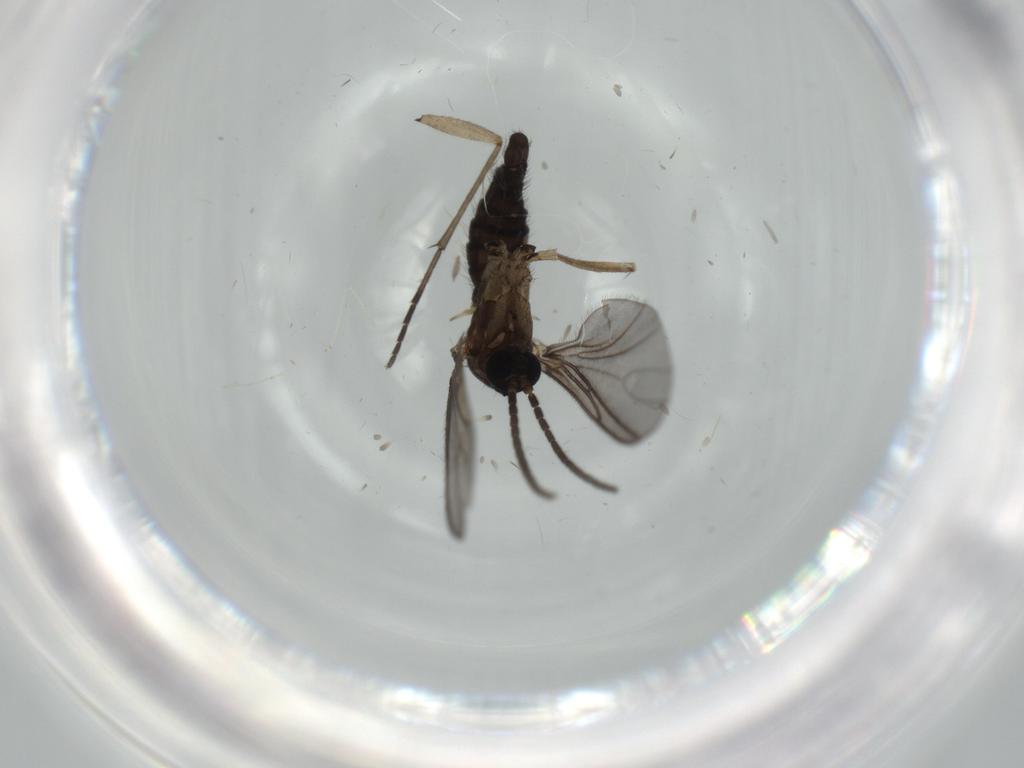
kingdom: Animalia
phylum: Arthropoda
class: Insecta
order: Diptera
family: Sciaridae
